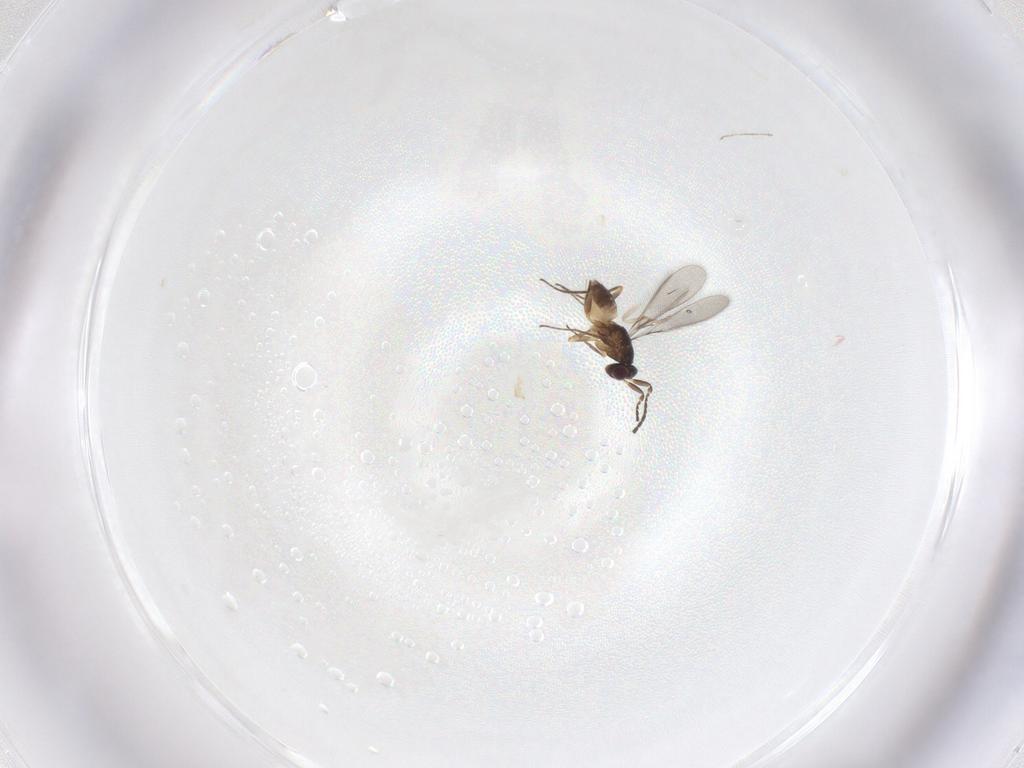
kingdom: Animalia
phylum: Arthropoda
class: Insecta
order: Hymenoptera
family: Mymaridae
